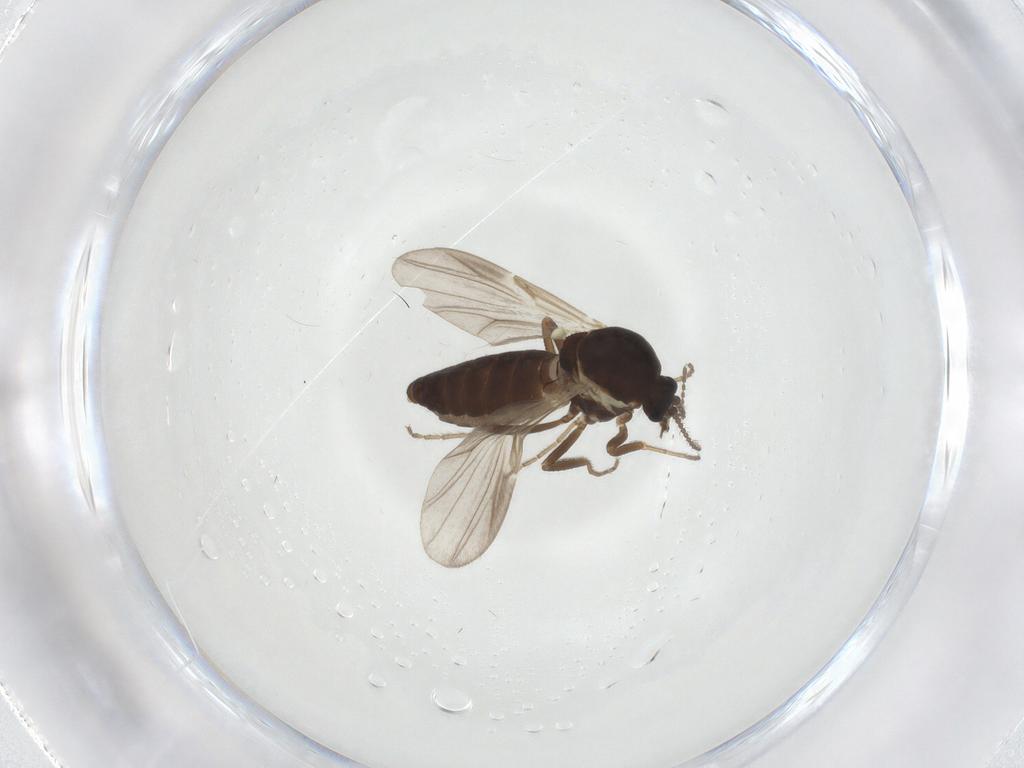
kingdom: Animalia
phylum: Arthropoda
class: Insecta
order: Diptera
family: Ceratopogonidae
